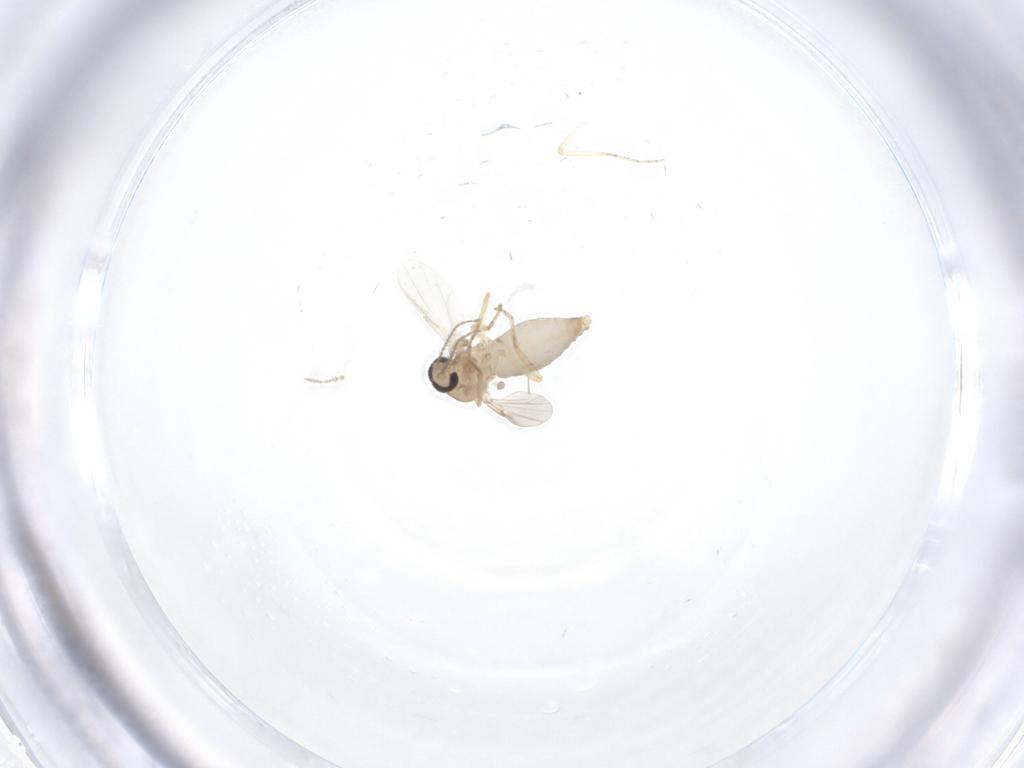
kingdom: Animalia
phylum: Arthropoda
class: Insecta
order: Diptera
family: Ceratopogonidae
